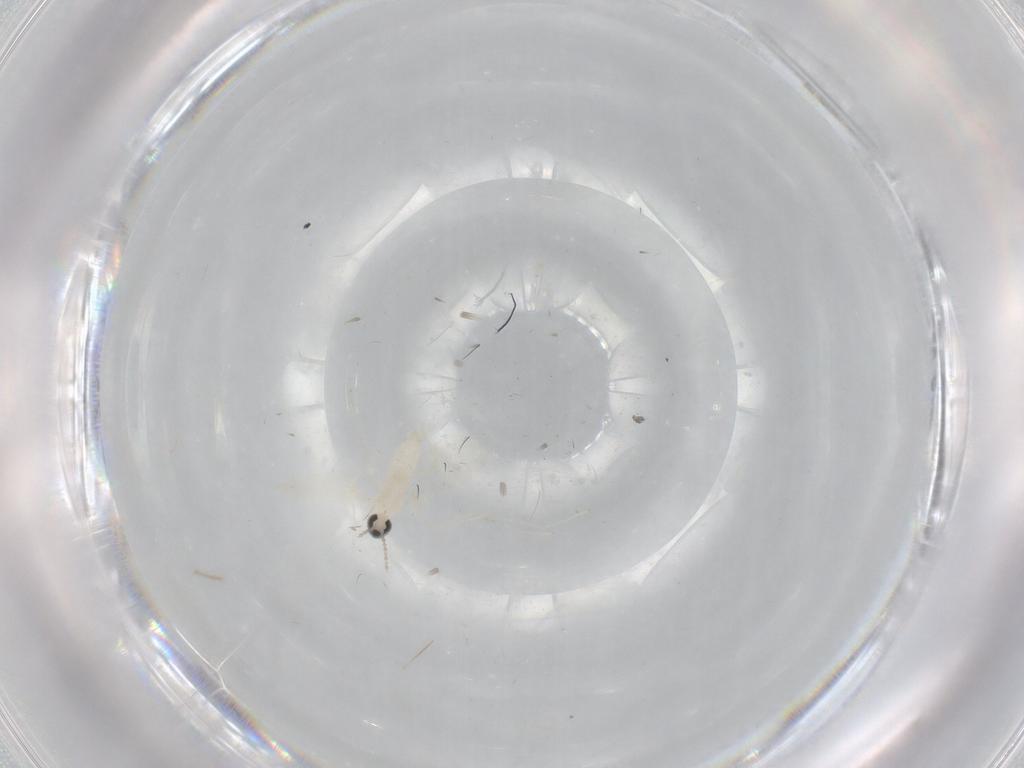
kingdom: Animalia
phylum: Arthropoda
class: Insecta
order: Diptera
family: Cecidomyiidae
